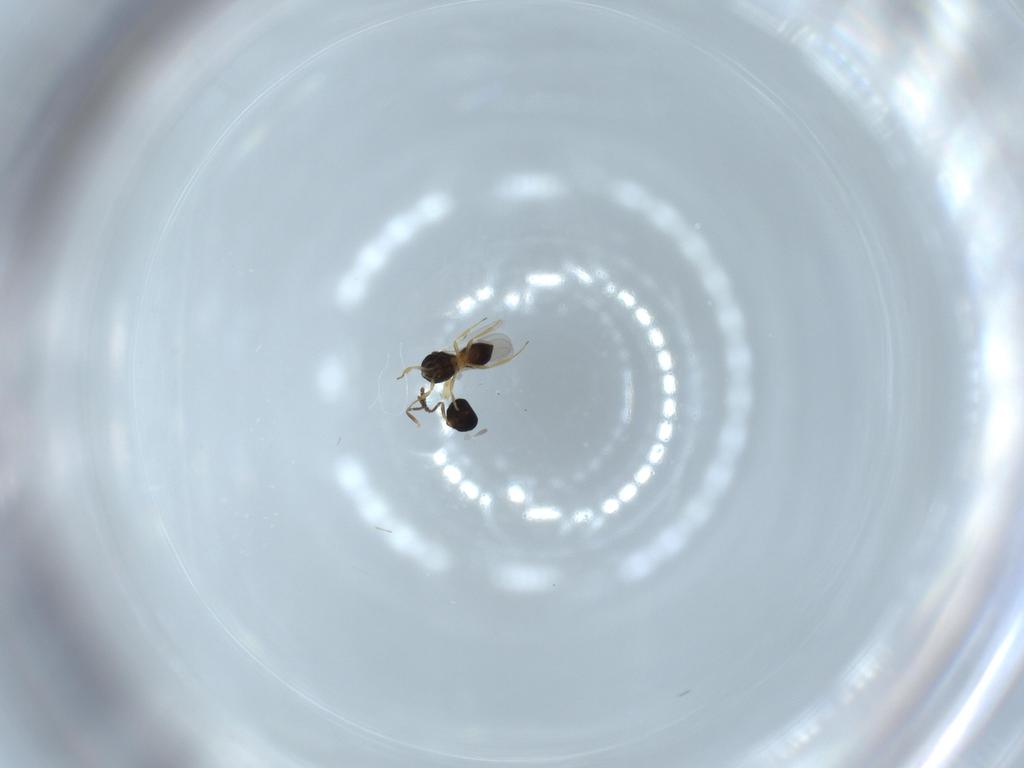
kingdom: Animalia
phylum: Arthropoda
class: Insecta
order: Hymenoptera
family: Scelionidae
